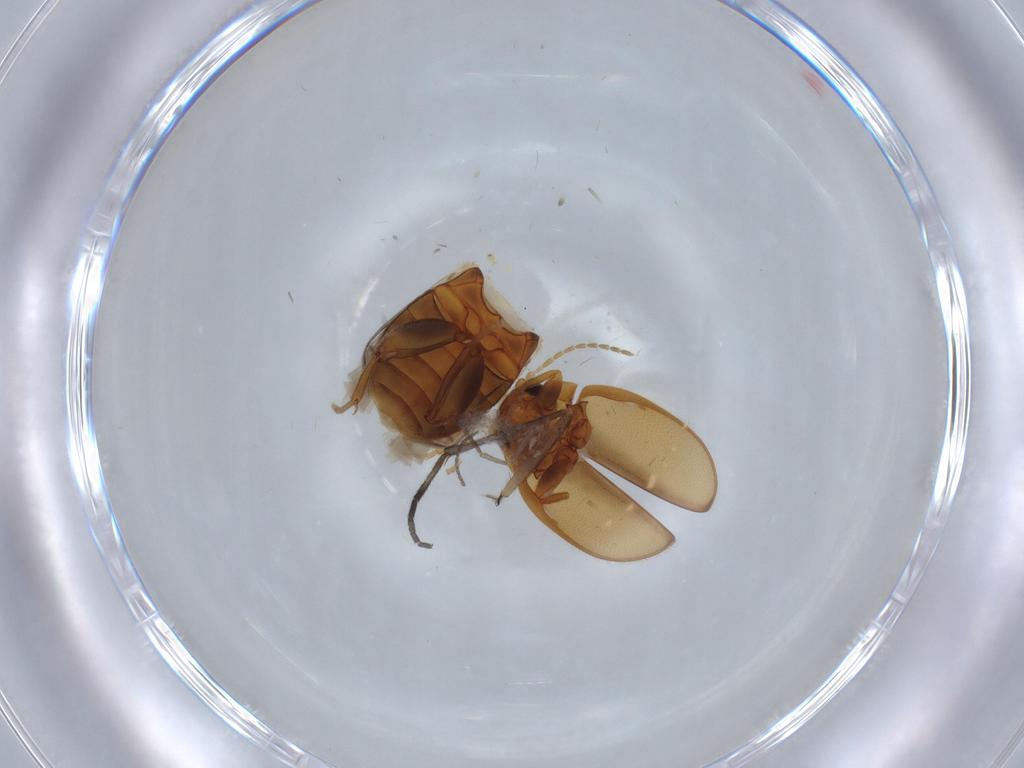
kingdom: Animalia
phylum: Arthropoda
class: Insecta
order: Coleoptera
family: Scirtidae
